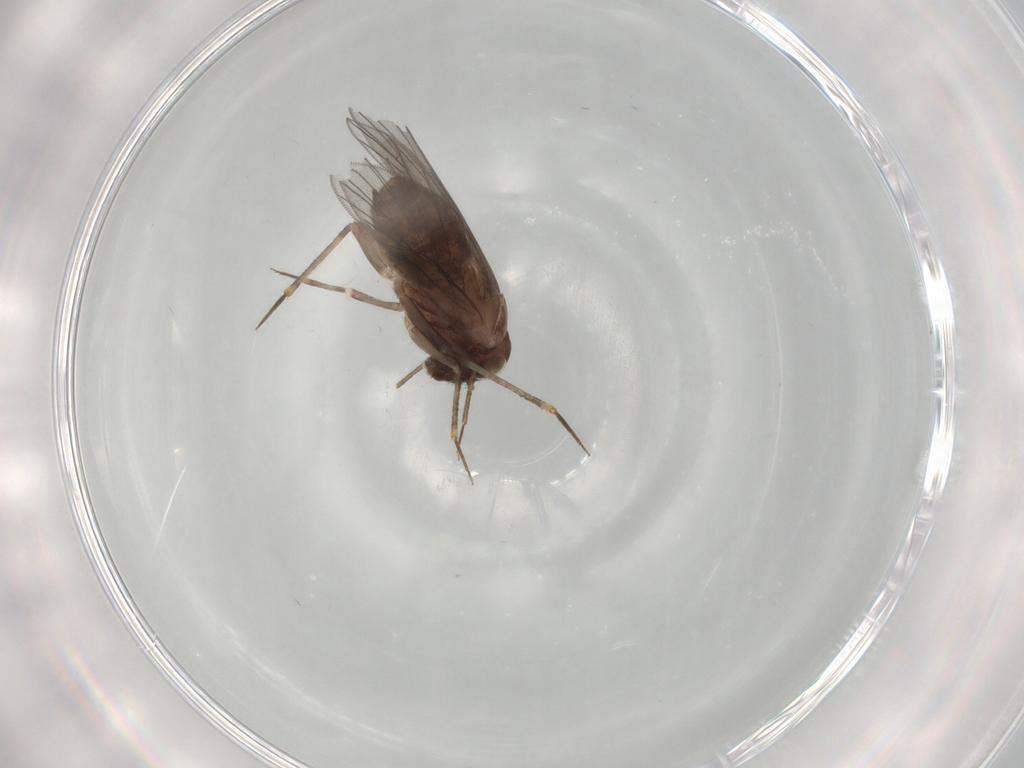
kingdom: Animalia
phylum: Arthropoda
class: Insecta
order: Psocodea
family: Lepidopsocidae
